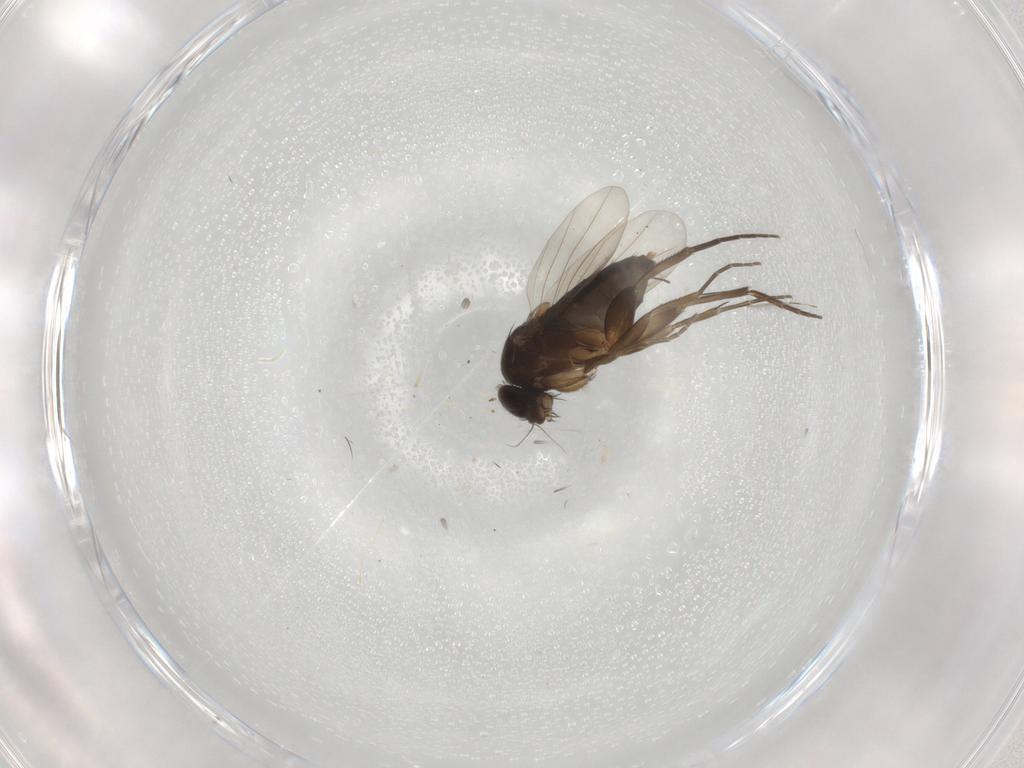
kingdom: Animalia
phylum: Arthropoda
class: Insecta
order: Diptera
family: Phoridae
